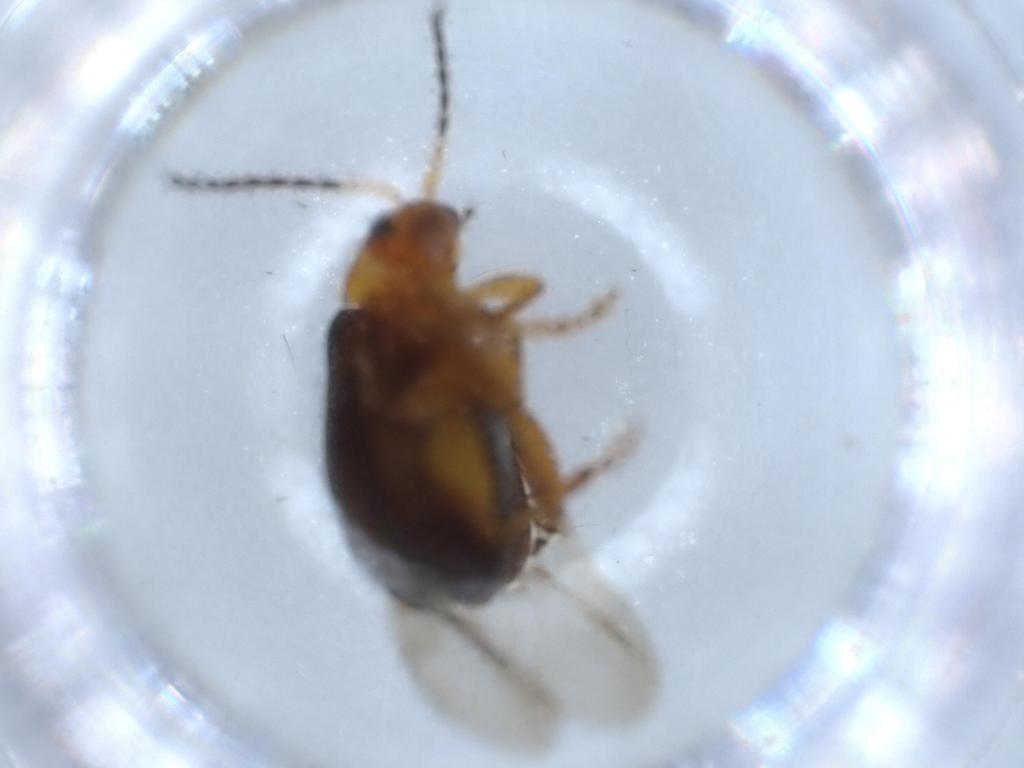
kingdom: Animalia
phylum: Arthropoda
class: Insecta
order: Coleoptera
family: Chrysomelidae
